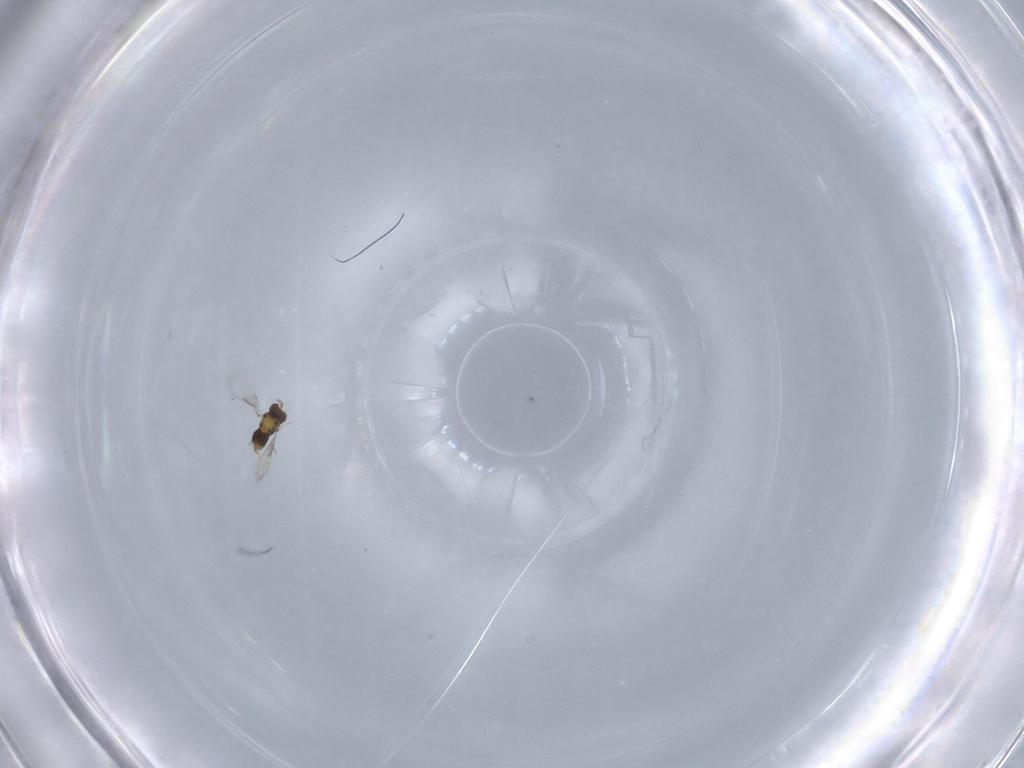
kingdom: Animalia
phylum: Arthropoda
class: Insecta
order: Hymenoptera
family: Aphelinidae
